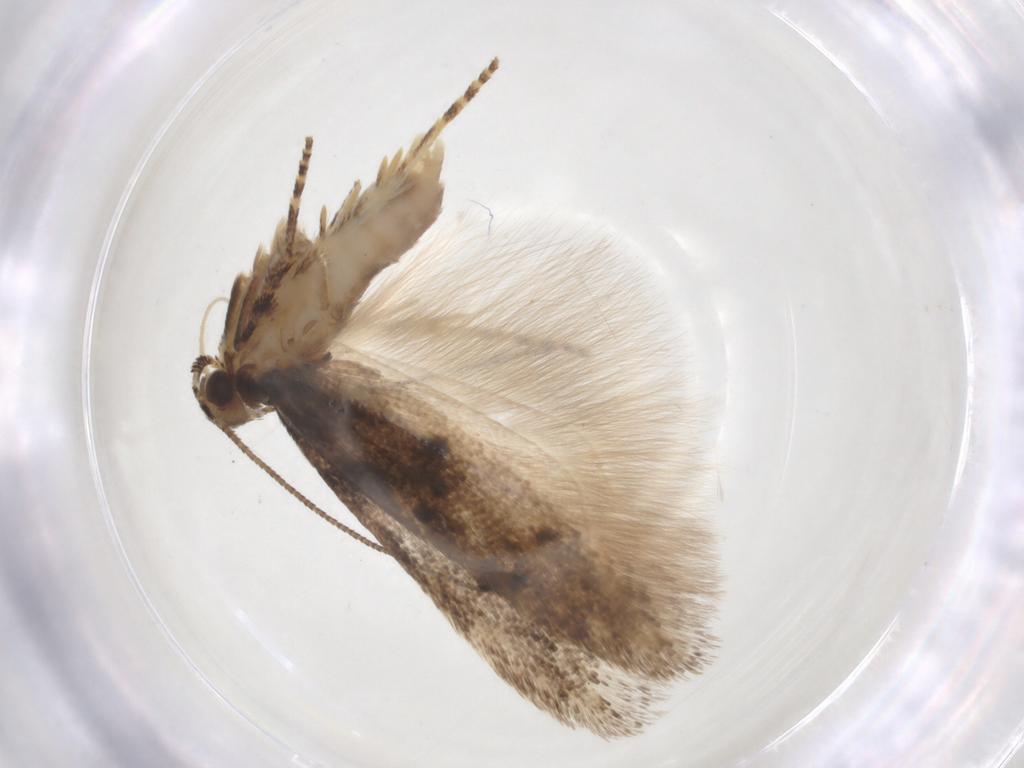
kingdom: Animalia
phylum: Arthropoda
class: Insecta
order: Lepidoptera
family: Gelechiidae
